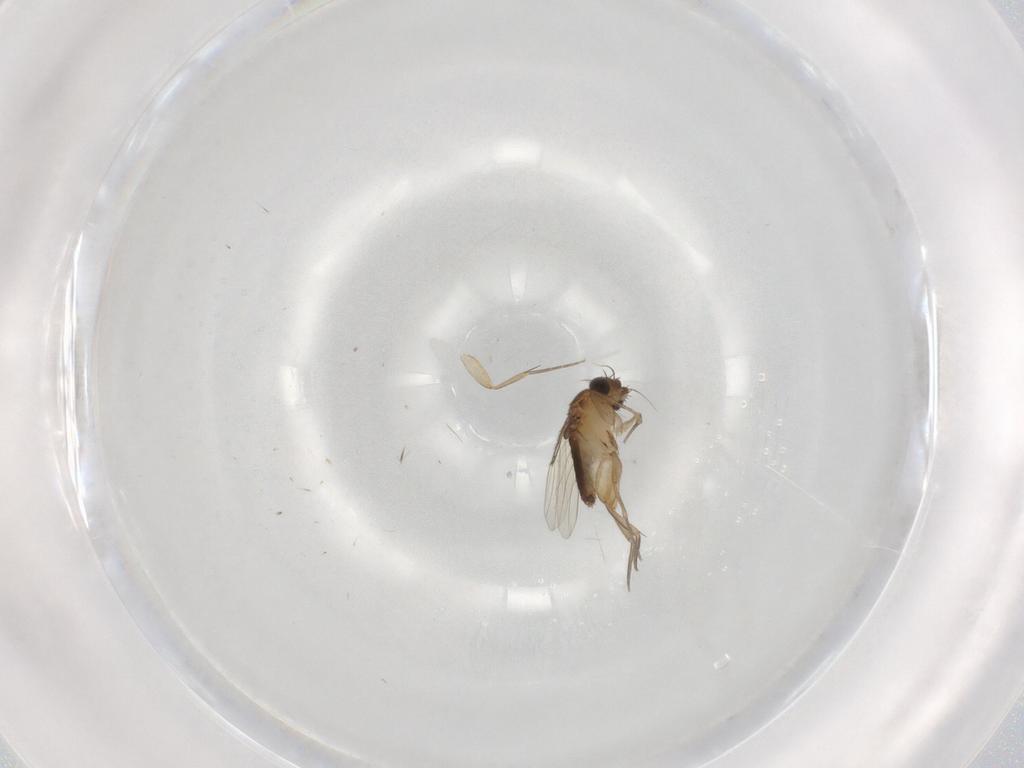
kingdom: Animalia
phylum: Arthropoda
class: Insecta
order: Diptera
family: Phoridae
